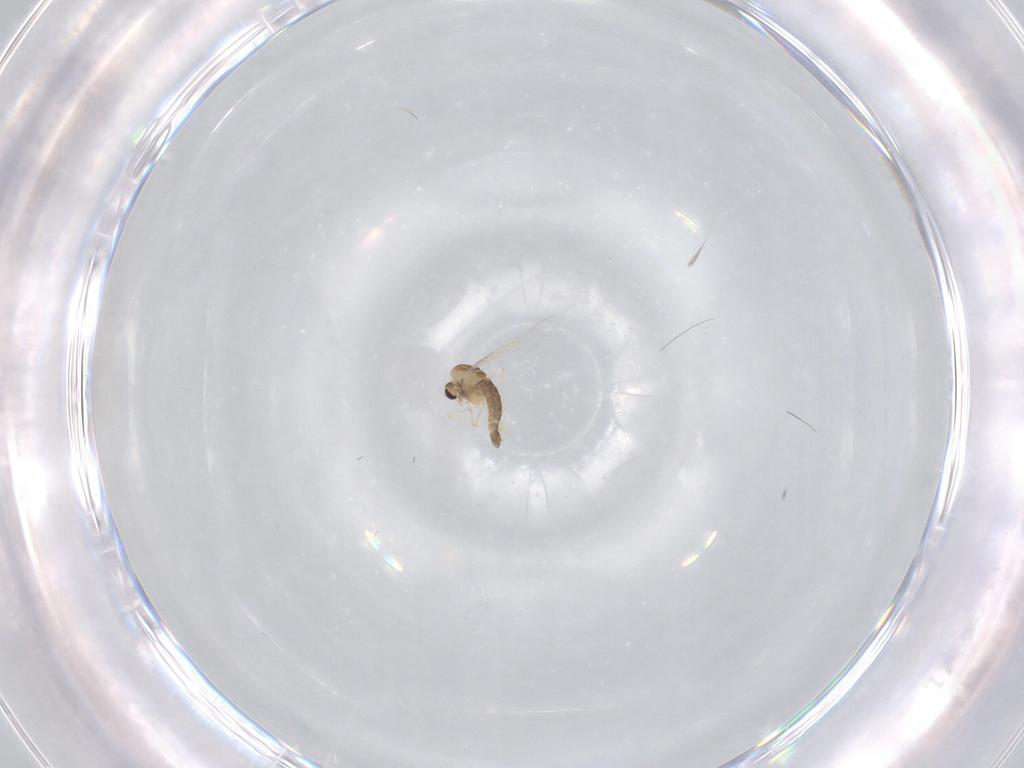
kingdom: Animalia
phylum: Arthropoda
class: Insecta
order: Diptera
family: Chironomidae
